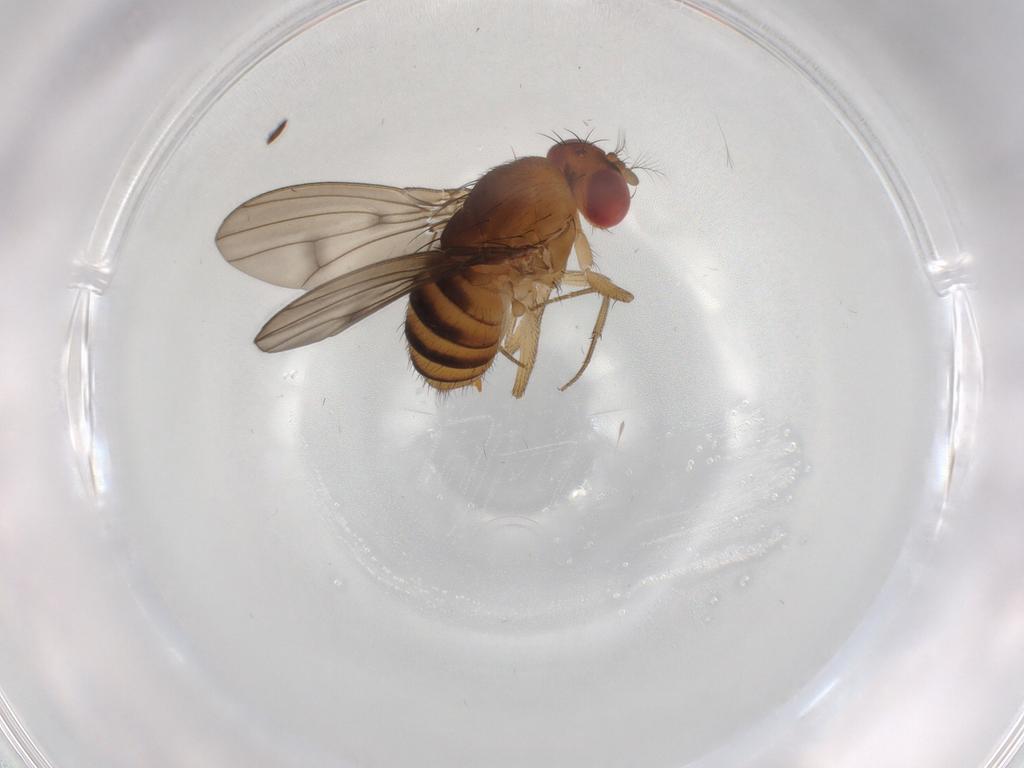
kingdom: Animalia
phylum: Arthropoda
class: Insecta
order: Diptera
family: Drosophilidae
